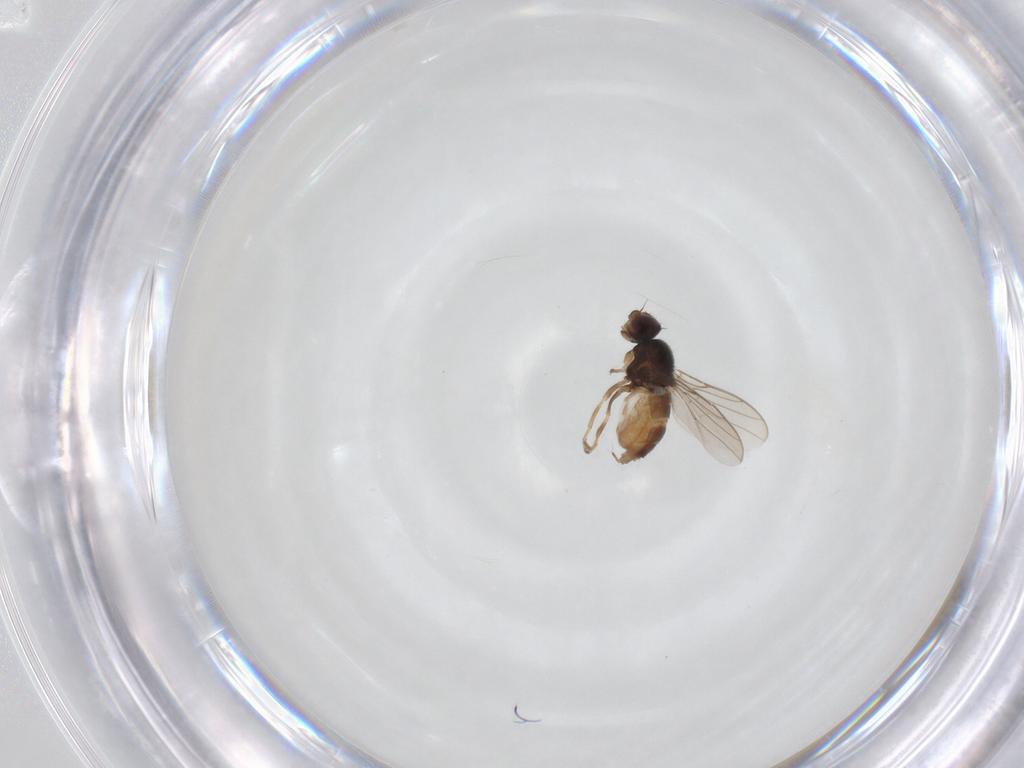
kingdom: Animalia
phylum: Arthropoda
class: Insecta
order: Diptera
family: Chloropidae
